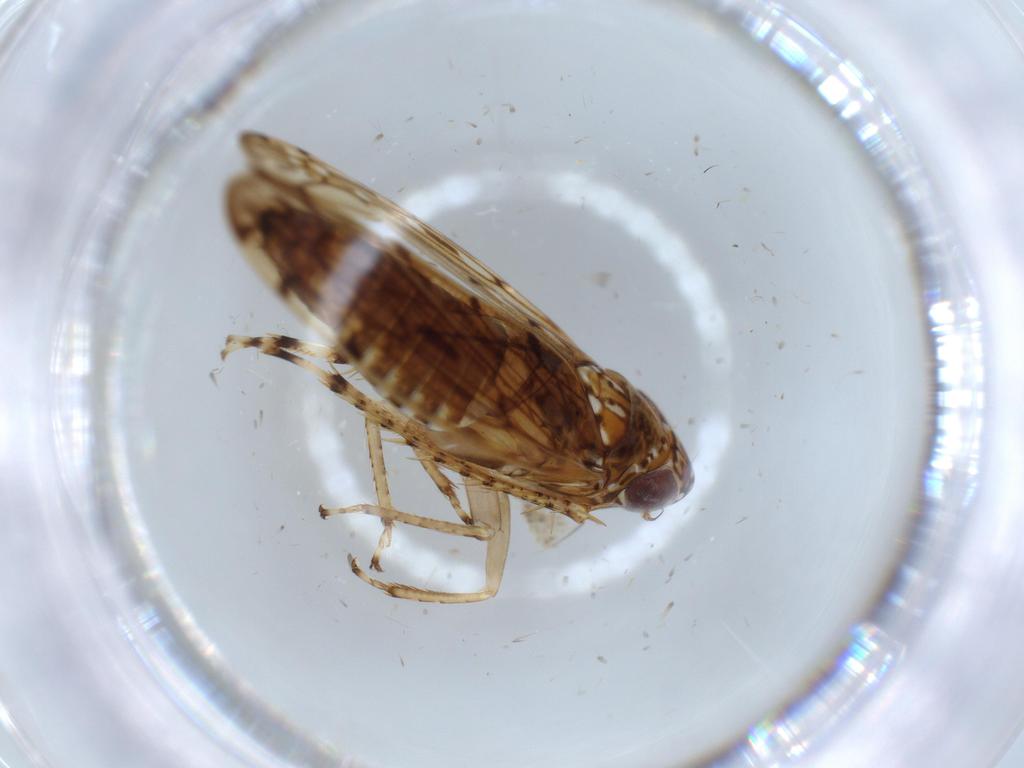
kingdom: Animalia
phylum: Arthropoda
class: Insecta
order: Hemiptera
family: Cicadellidae
